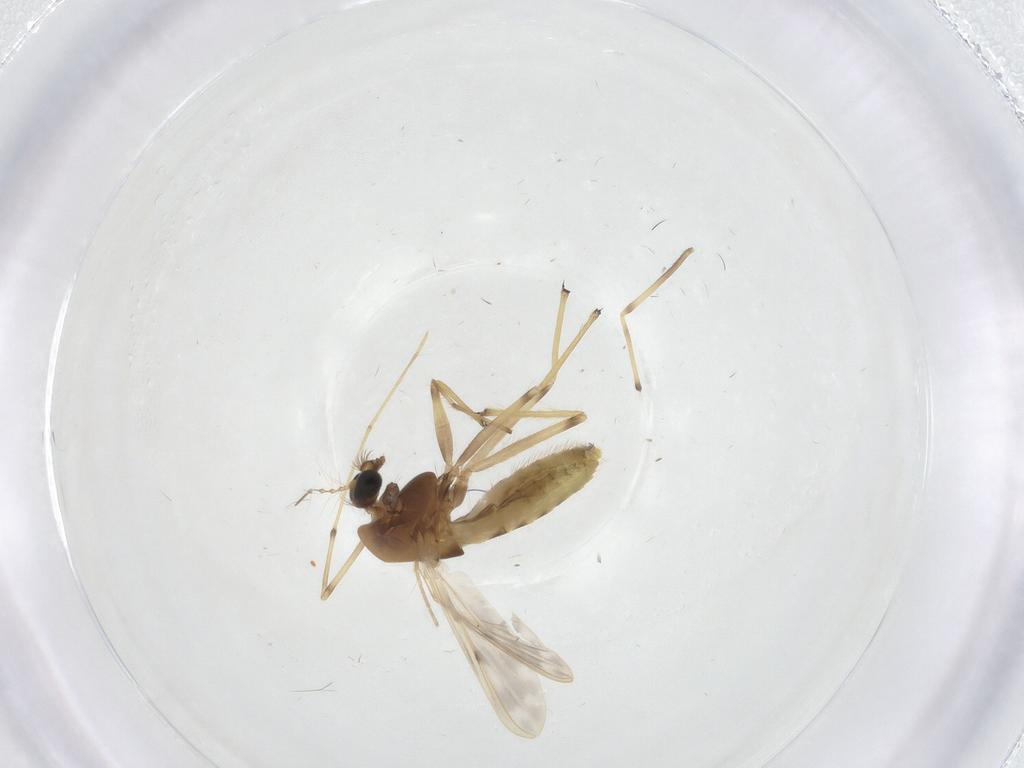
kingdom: Animalia
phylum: Arthropoda
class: Insecta
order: Diptera
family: Chironomidae
